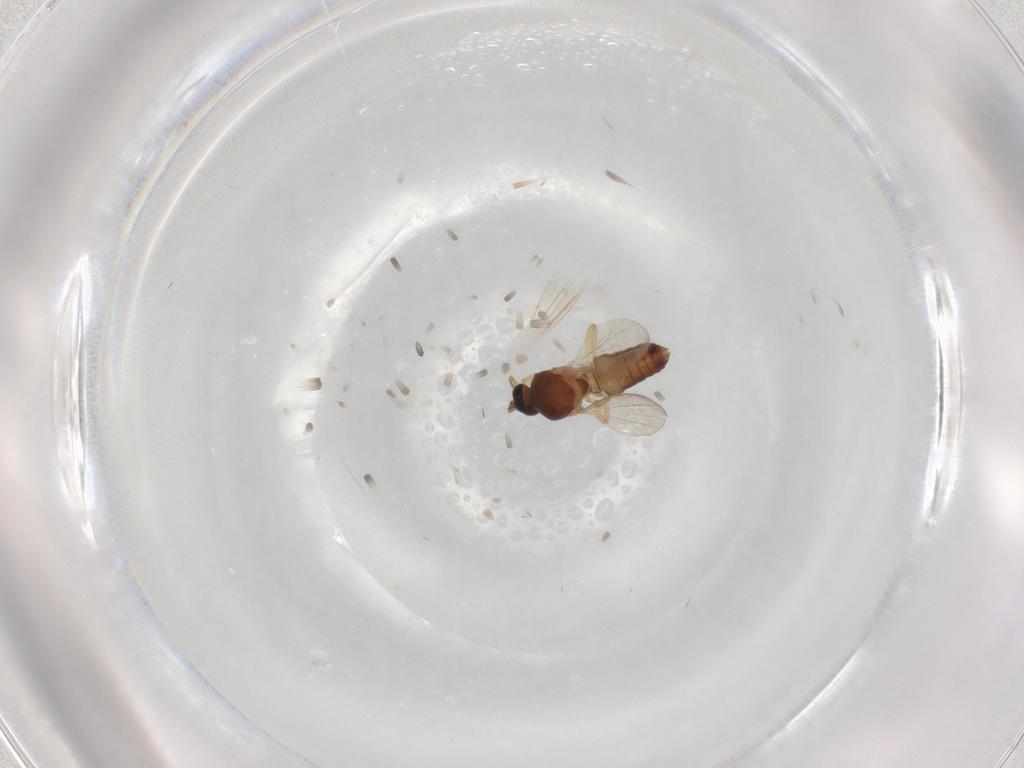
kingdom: Animalia
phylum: Arthropoda
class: Insecta
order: Diptera
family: Ceratopogonidae
